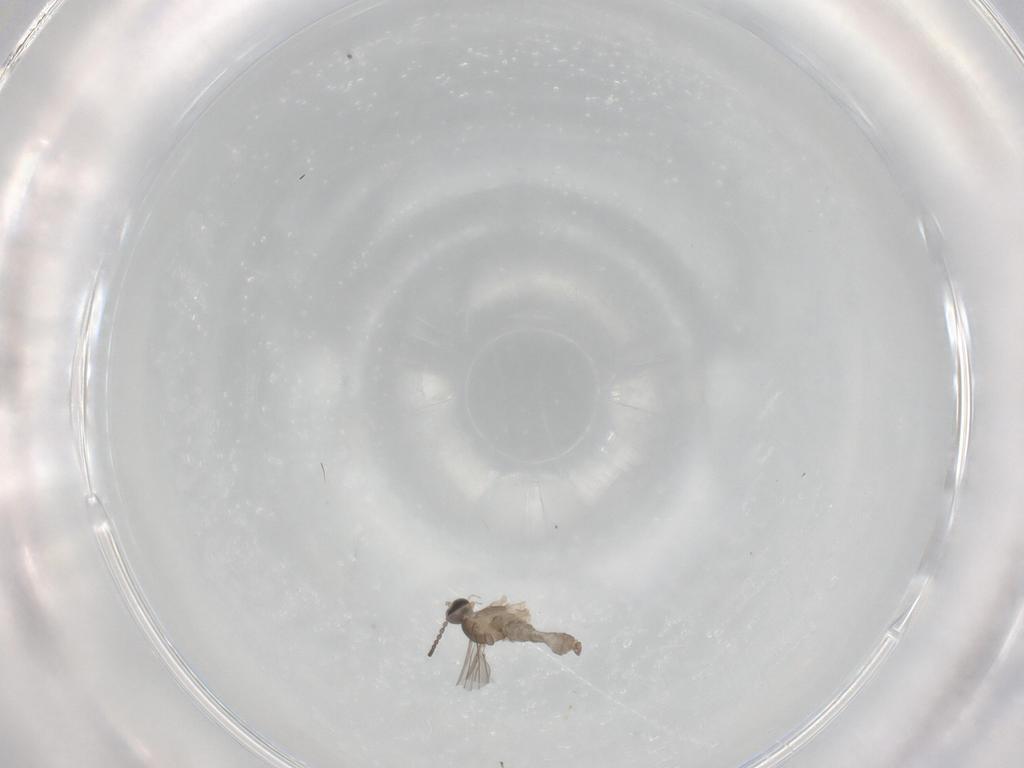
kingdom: Animalia
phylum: Arthropoda
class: Insecta
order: Diptera
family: Cecidomyiidae
